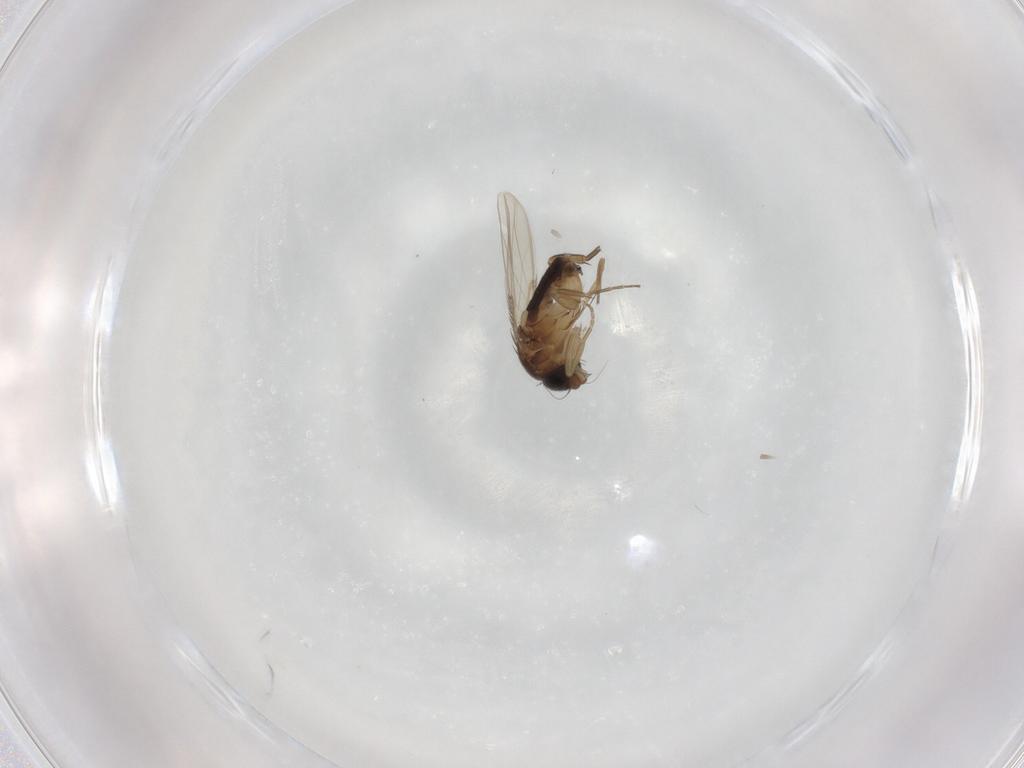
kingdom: Animalia
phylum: Arthropoda
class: Insecta
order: Diptera
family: Phoridae
